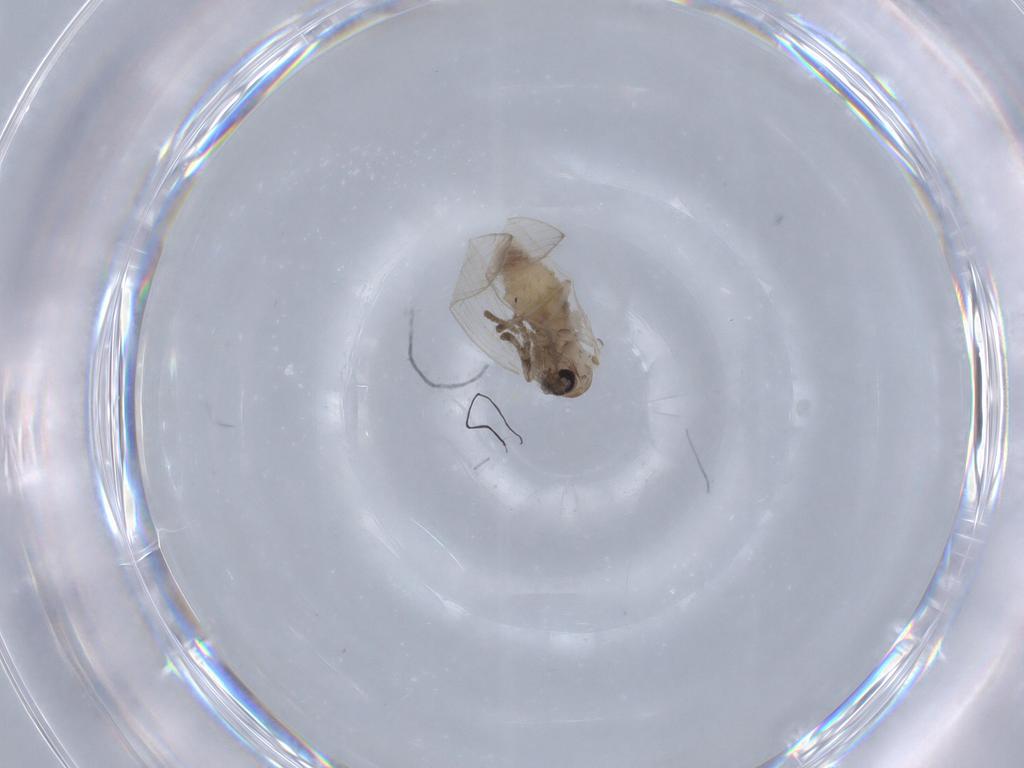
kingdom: Animalia
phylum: Arthropoda
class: Insecta
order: Diptera
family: Psychodidae
